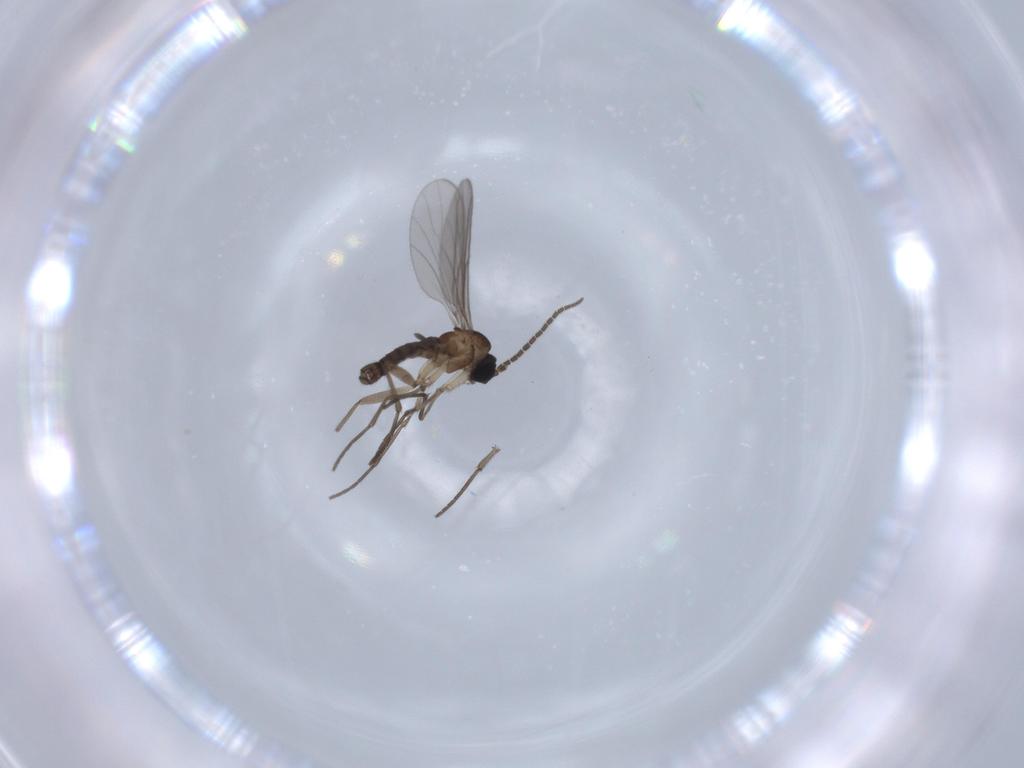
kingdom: Animalia
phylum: Arthropoda
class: Insecta
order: Diptera
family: Sciaridae
